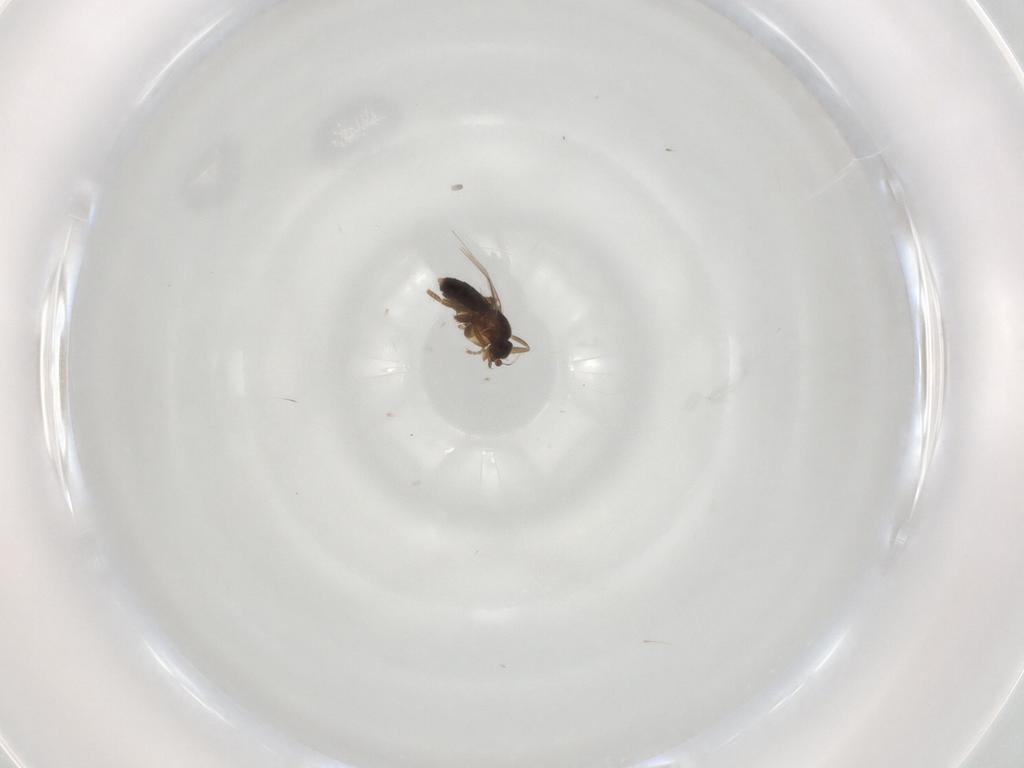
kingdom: Animalia
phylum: Arthropoda
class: Insecta
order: Diptera
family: Phoridae
